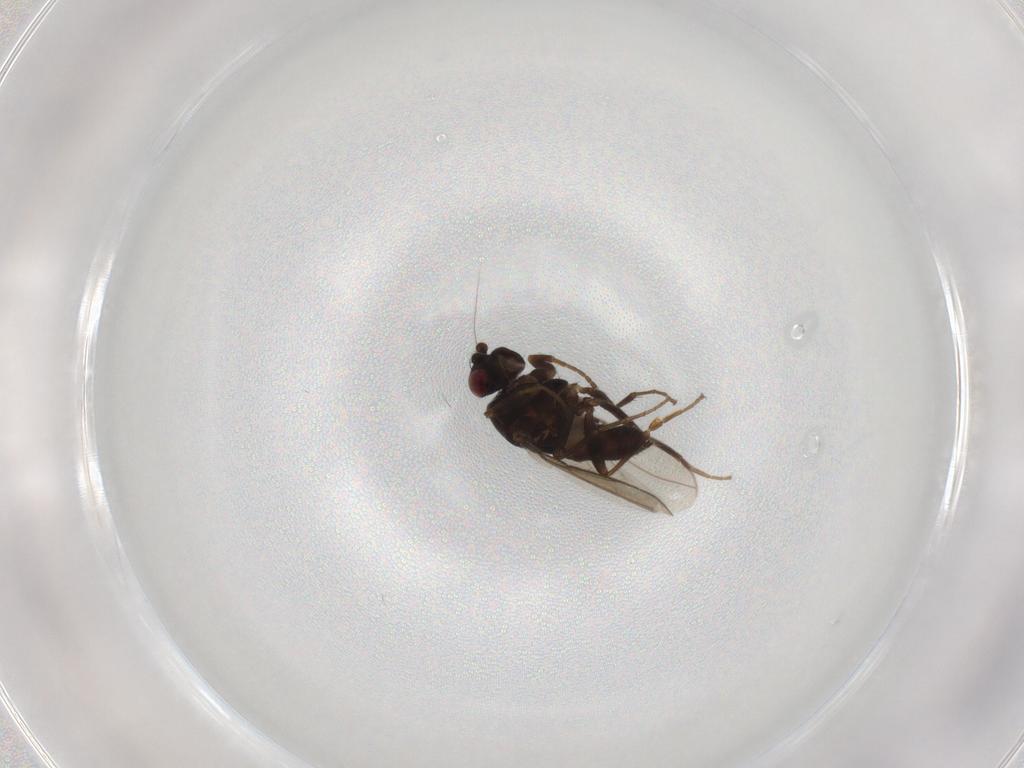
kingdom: Animalia
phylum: Arthropoda
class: Insecta
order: Diptera
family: Sphaeroceridae
